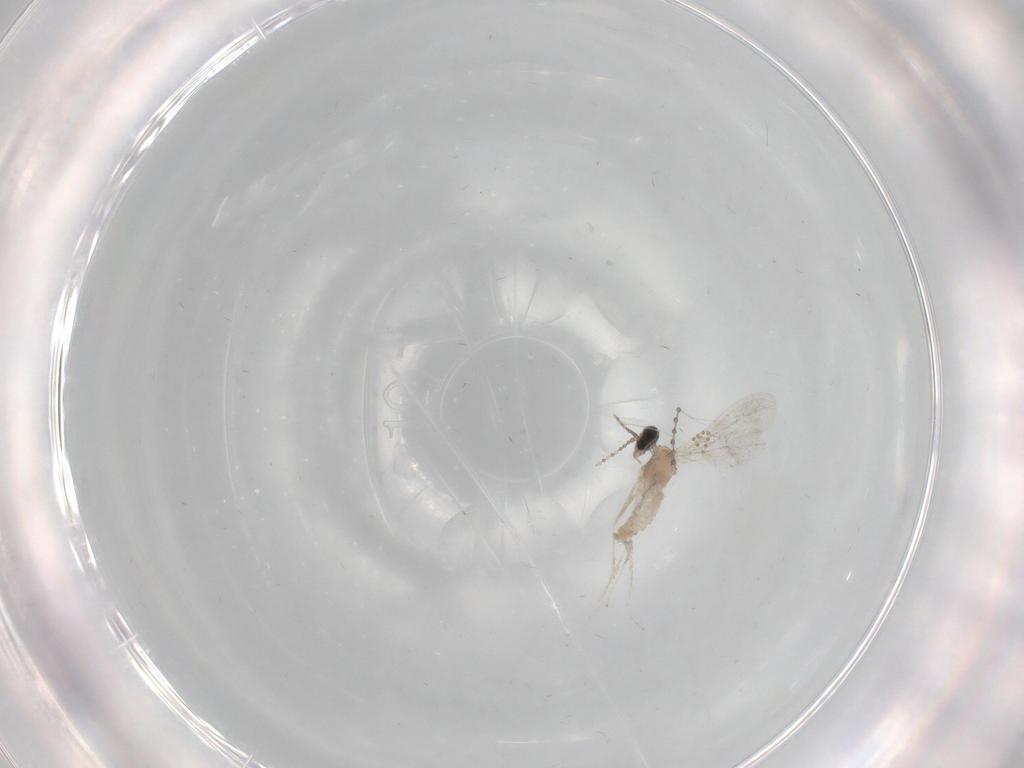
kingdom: Animalia
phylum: Arthropoda
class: Insecta
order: Diptera
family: Cecidomyiidae
